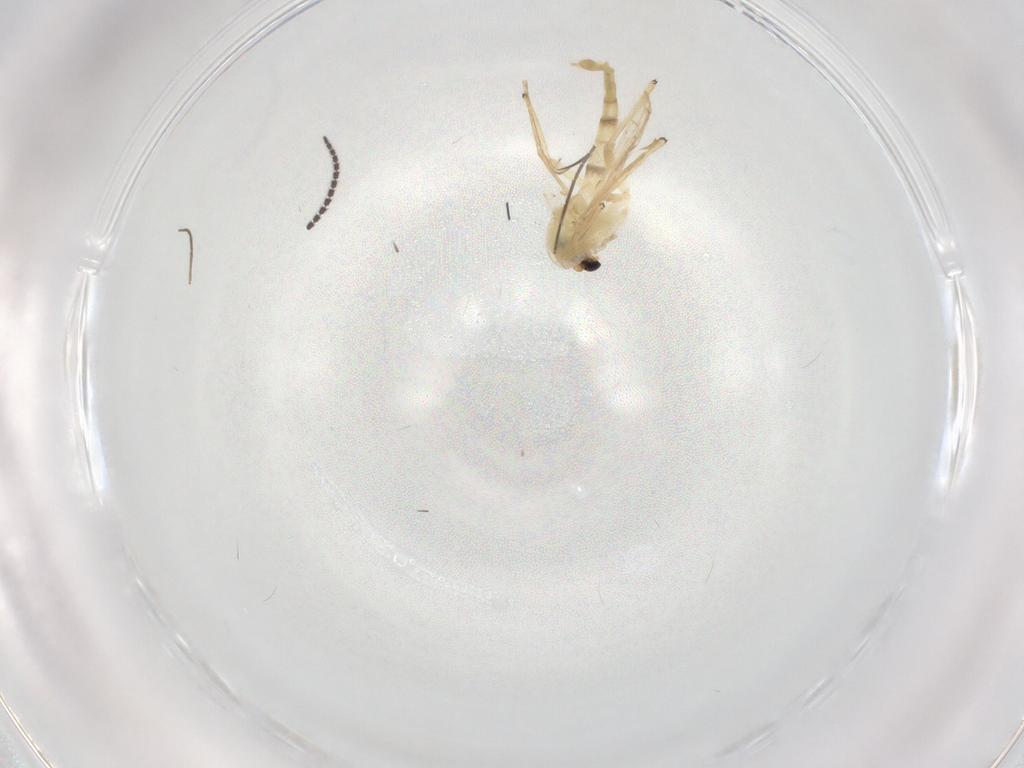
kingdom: Animalia
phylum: Arthropoda
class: Insecta
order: Diptera
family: Chironomidae
